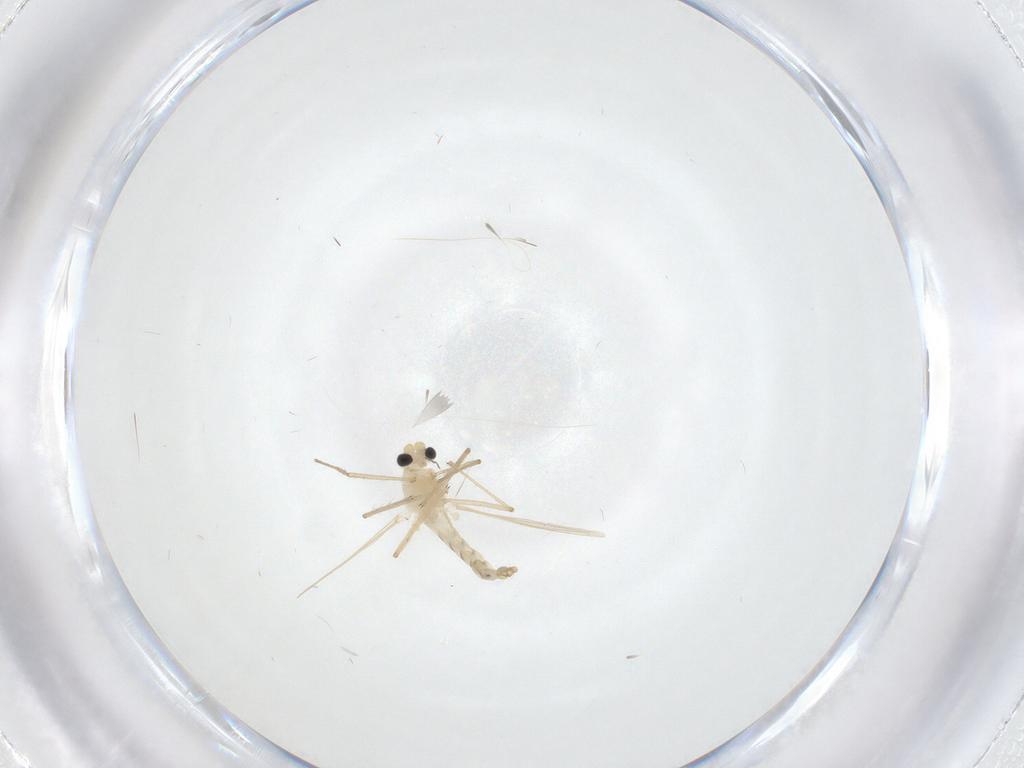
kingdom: Animalia
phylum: Arthropoda
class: Insecta
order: Diptera
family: Chironomidae
